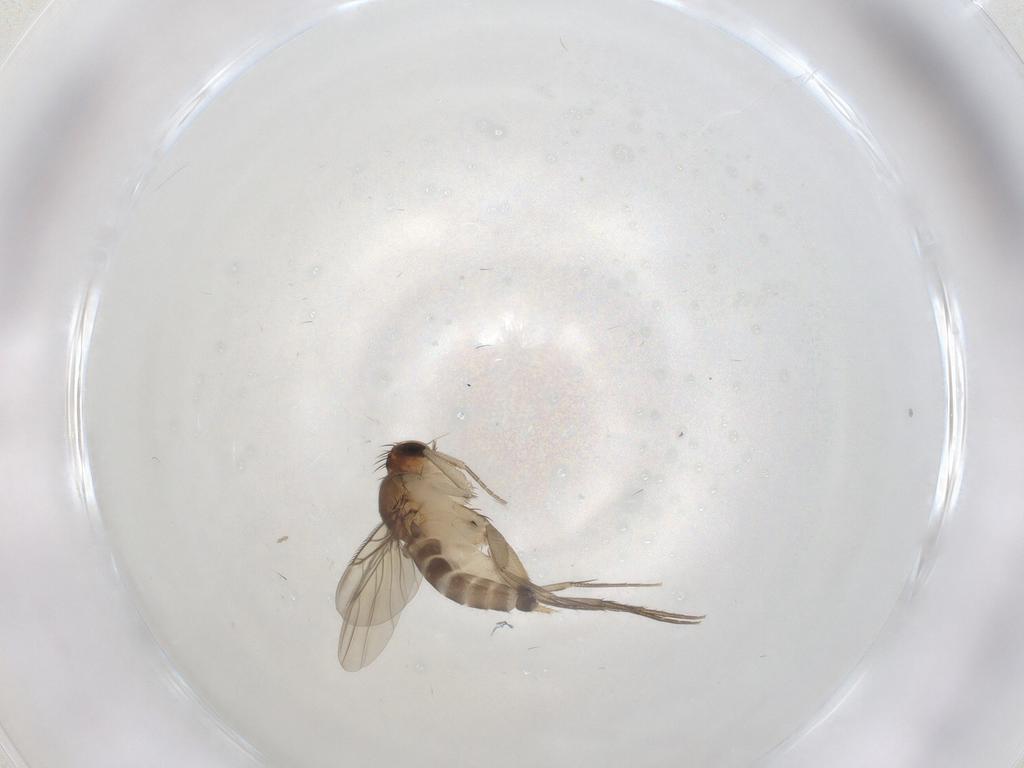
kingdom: Animalia
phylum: Arthropoda
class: Insecta
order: Diptera
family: Phoridae
